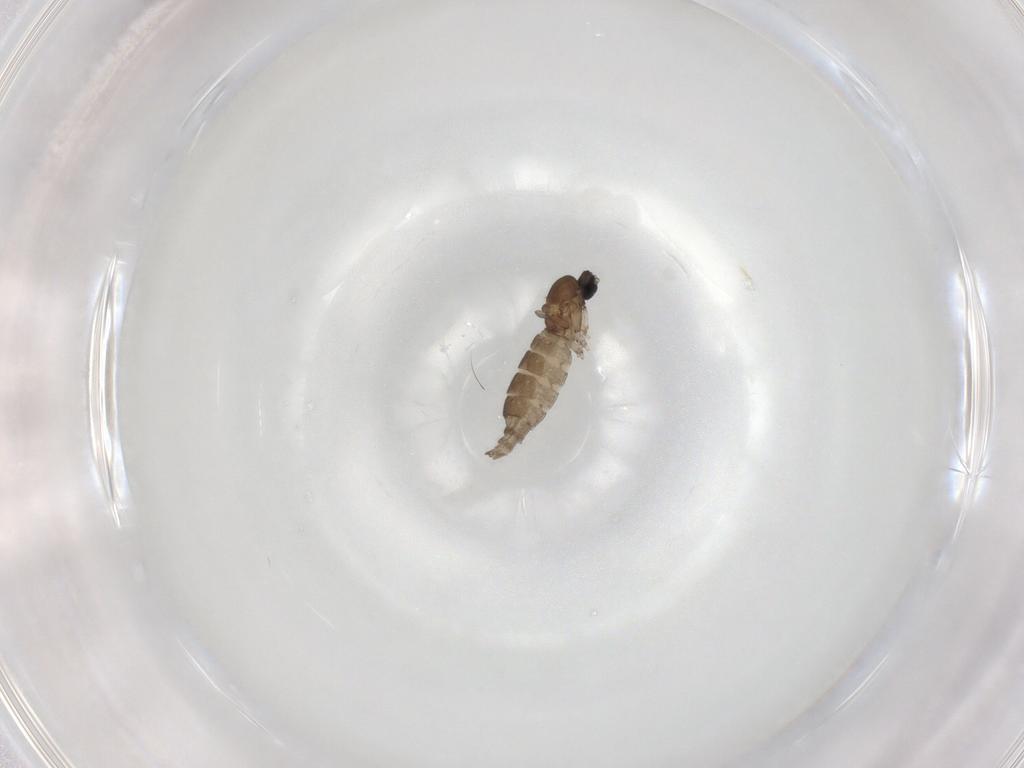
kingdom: Animalia
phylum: Arthropoda
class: Insecta
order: Diptera
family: Sciaridae
